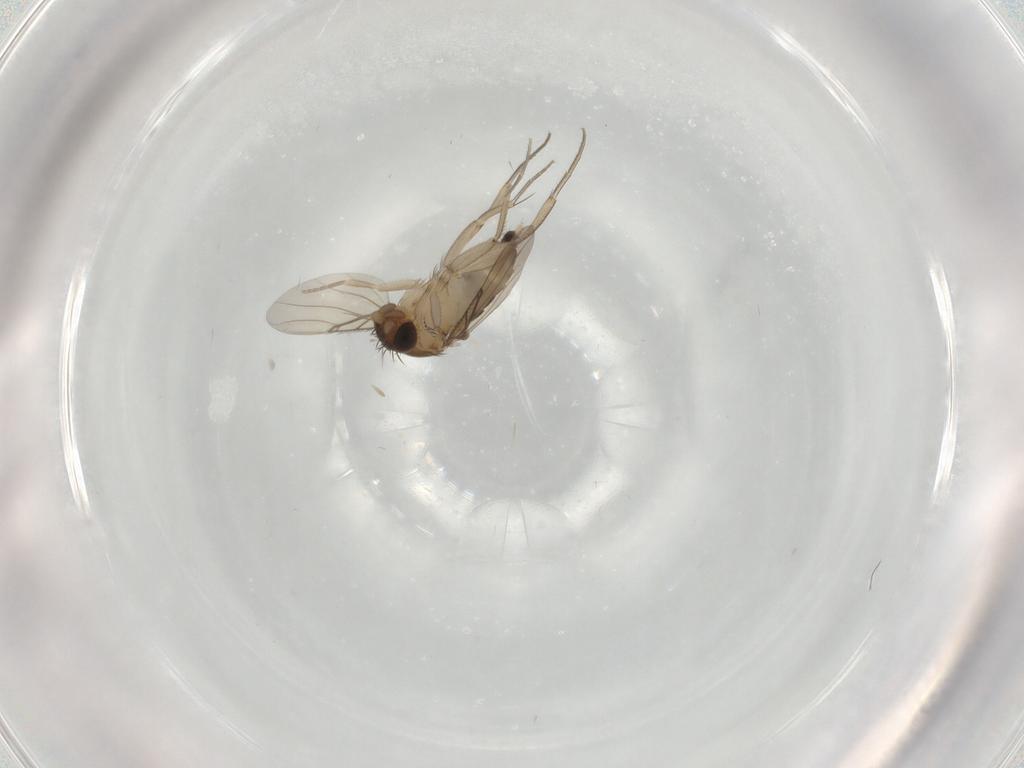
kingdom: Animalia
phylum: Arthropoda
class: Insecta
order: Diptera
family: Phoridae
